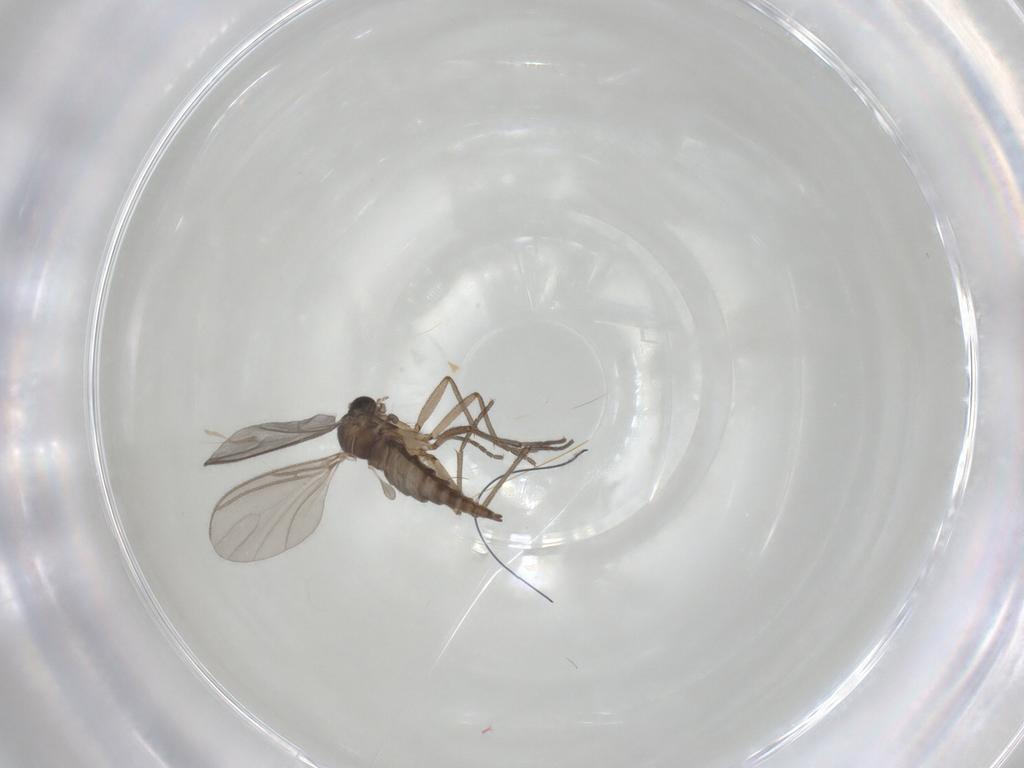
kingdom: Animalia
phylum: Arthropoda
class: Insecta
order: Diptera
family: Sciaridae
